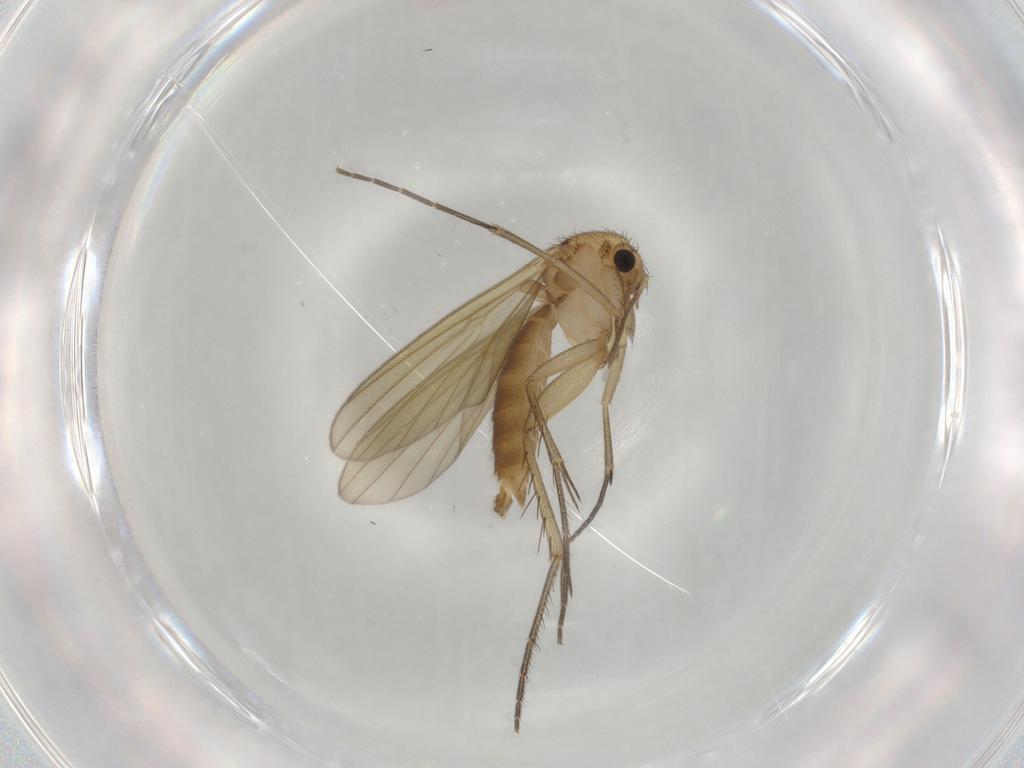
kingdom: Animalia
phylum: Arthropoda
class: Insecta
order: Diptera
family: Mycetophilidae
